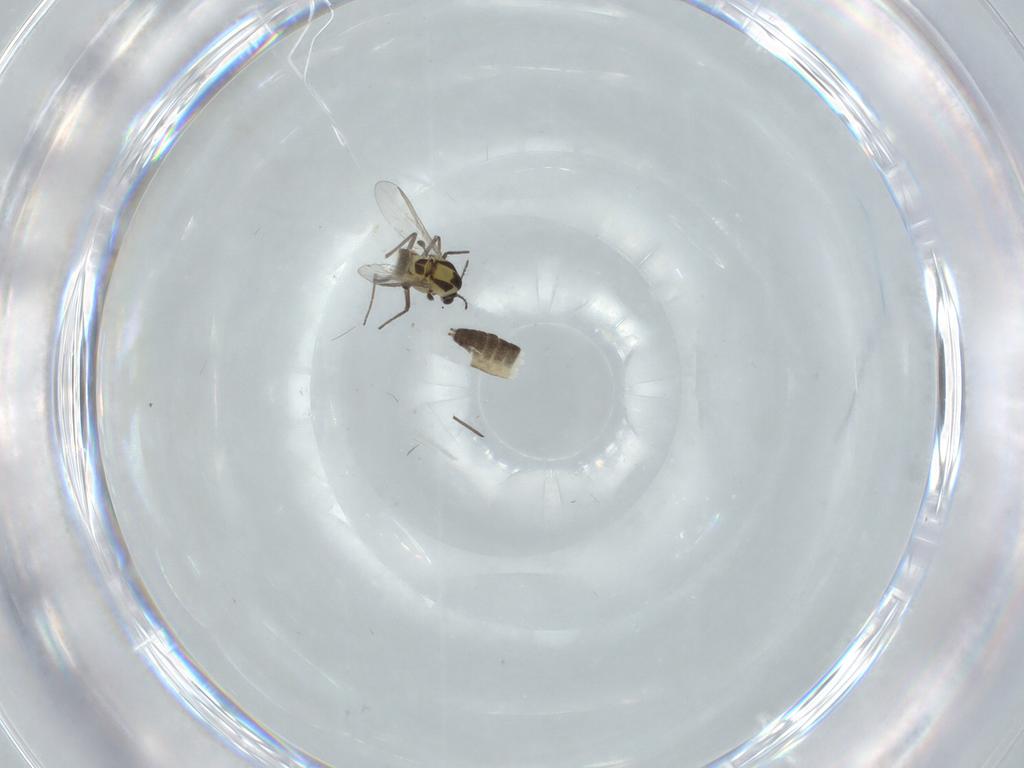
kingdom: Animalia
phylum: Arthropoda
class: Insecta
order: Diptera
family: Chironomidae
